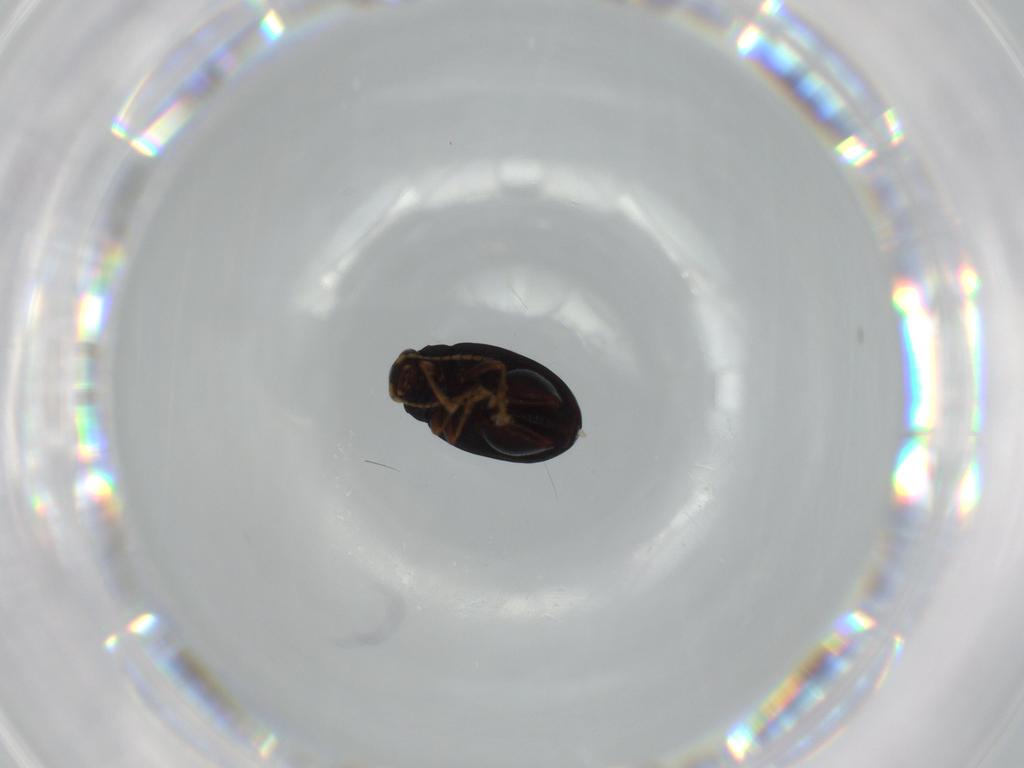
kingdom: Animalia
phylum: Arthropoda
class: Insecta
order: Coleoptera
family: Chrysomelidae
